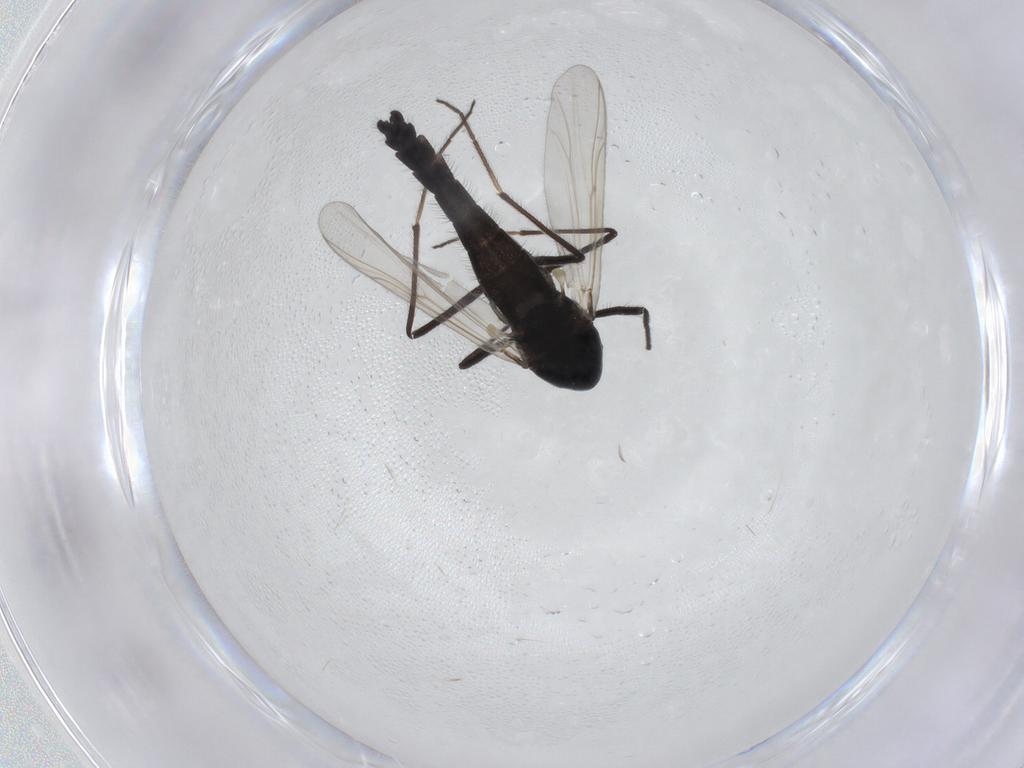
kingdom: Animalia
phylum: Arthropoda
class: Insecta
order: Diptera
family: Chironomidae
